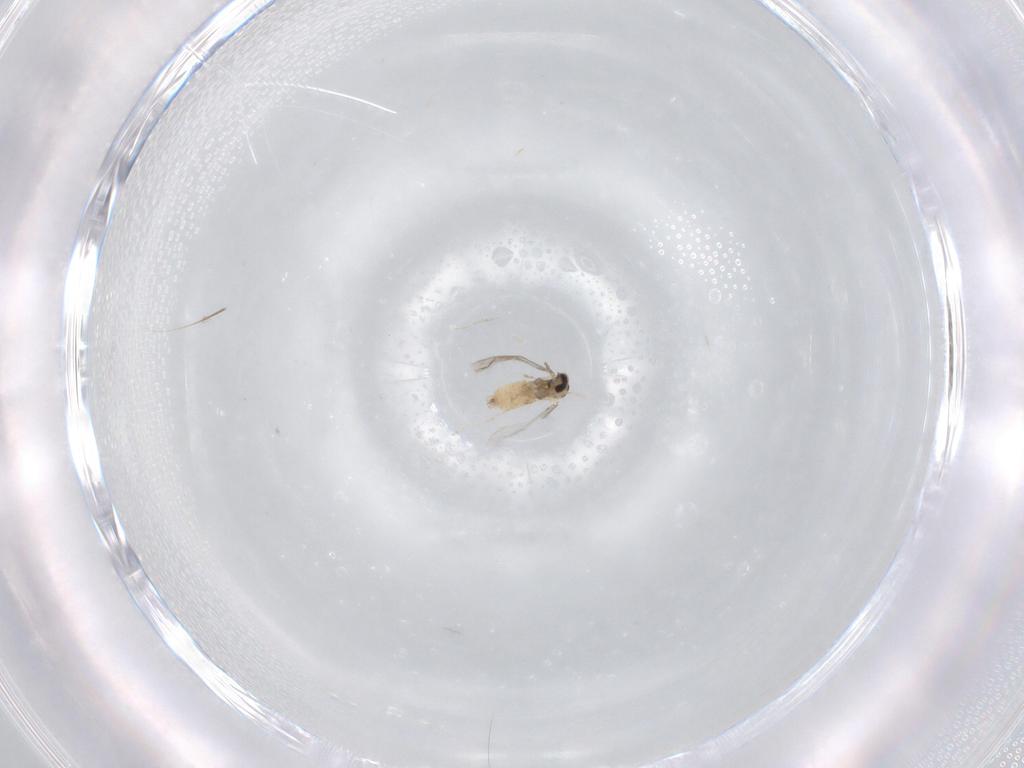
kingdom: Animalia
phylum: Arthropoda
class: Insecta
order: Diptera
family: Cecidomyiidae
